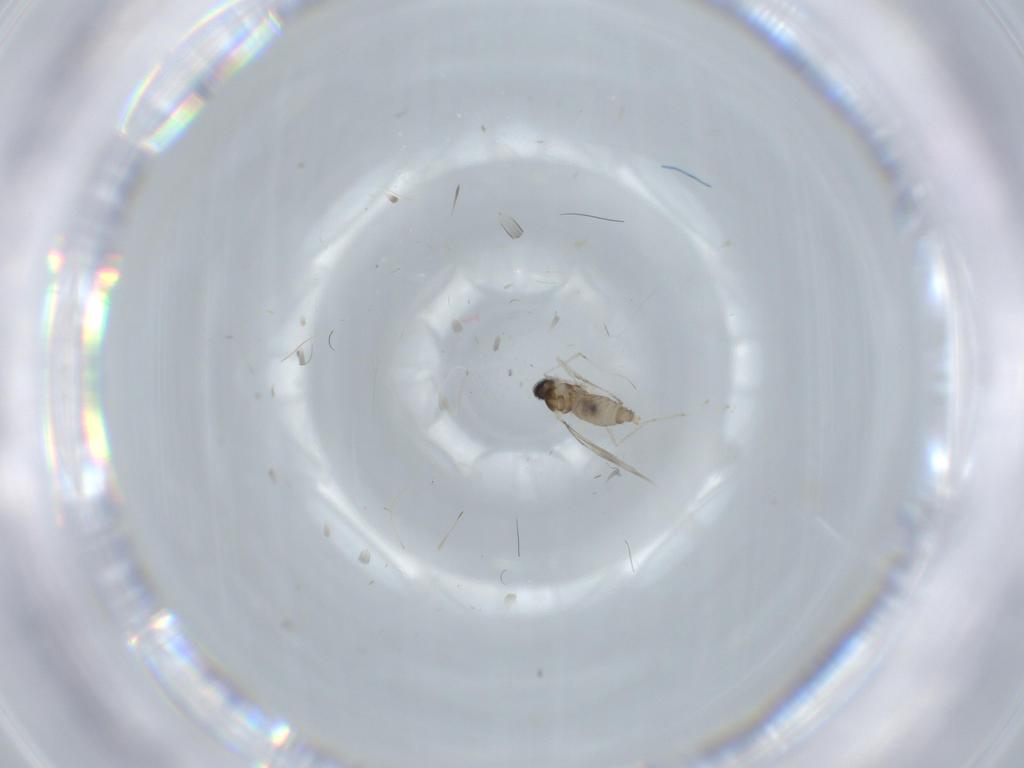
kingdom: Animalia
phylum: Arthropoda
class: Insecta
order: Diptera
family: Cecidomyiidae
